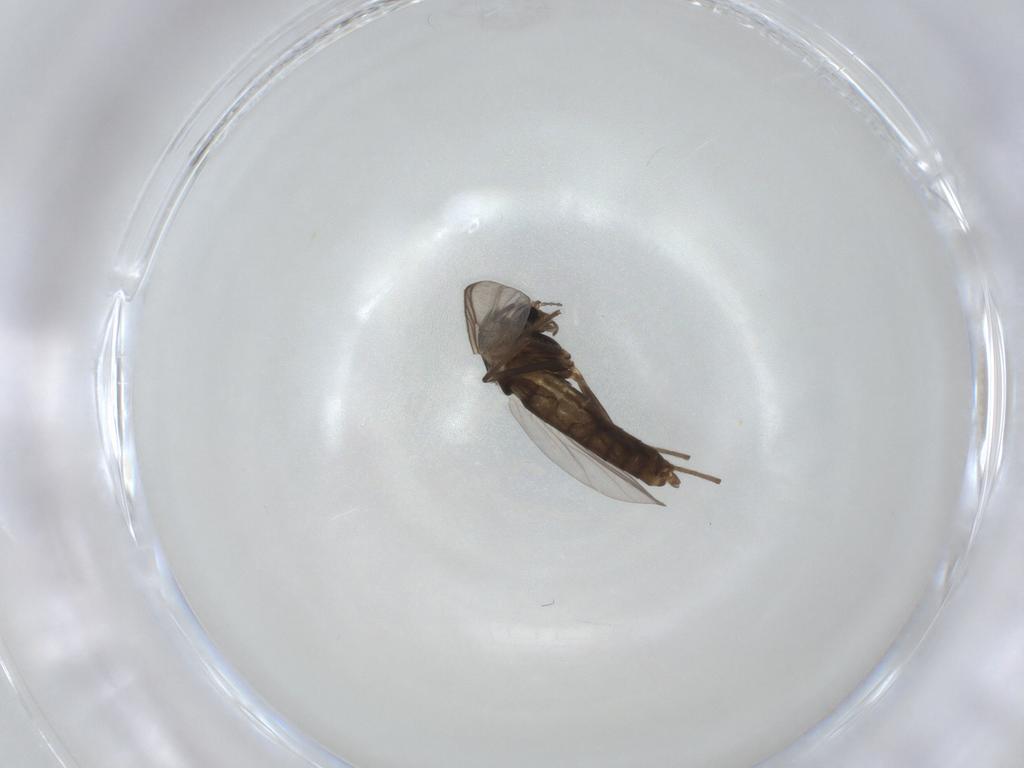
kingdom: Animalia
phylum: Arthropoda
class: Insecta
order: Diptera
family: Chironomidae
